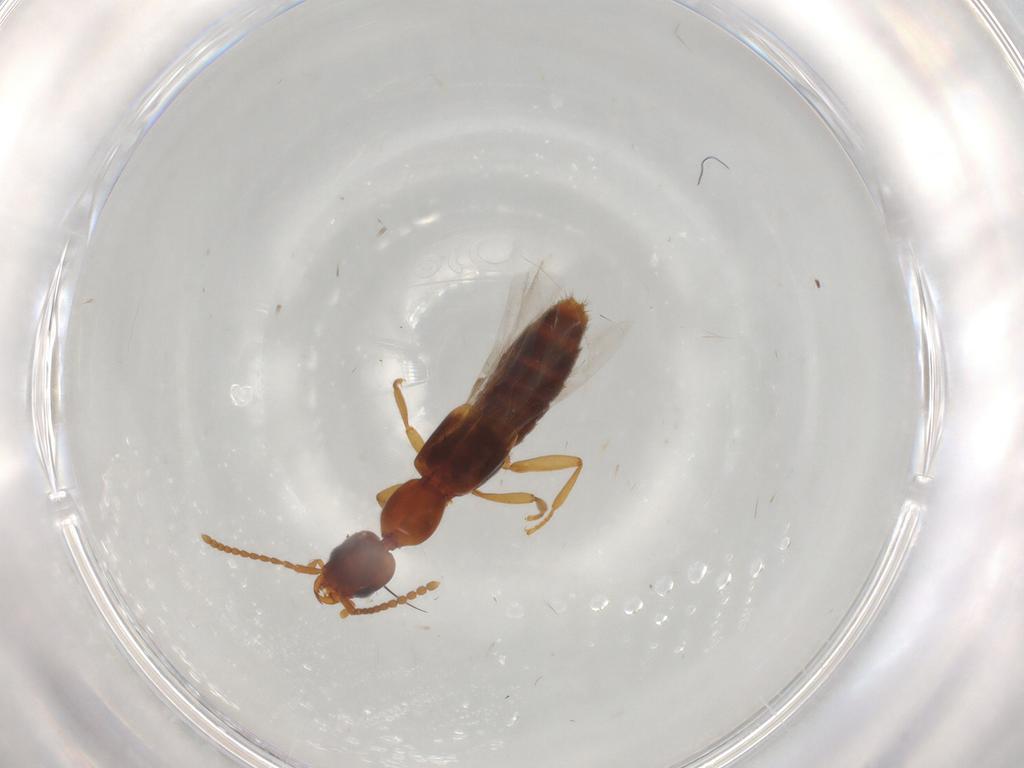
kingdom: Animalia
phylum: Arthropoda
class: Insecta
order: Coleoptera
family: Staphylinidae
